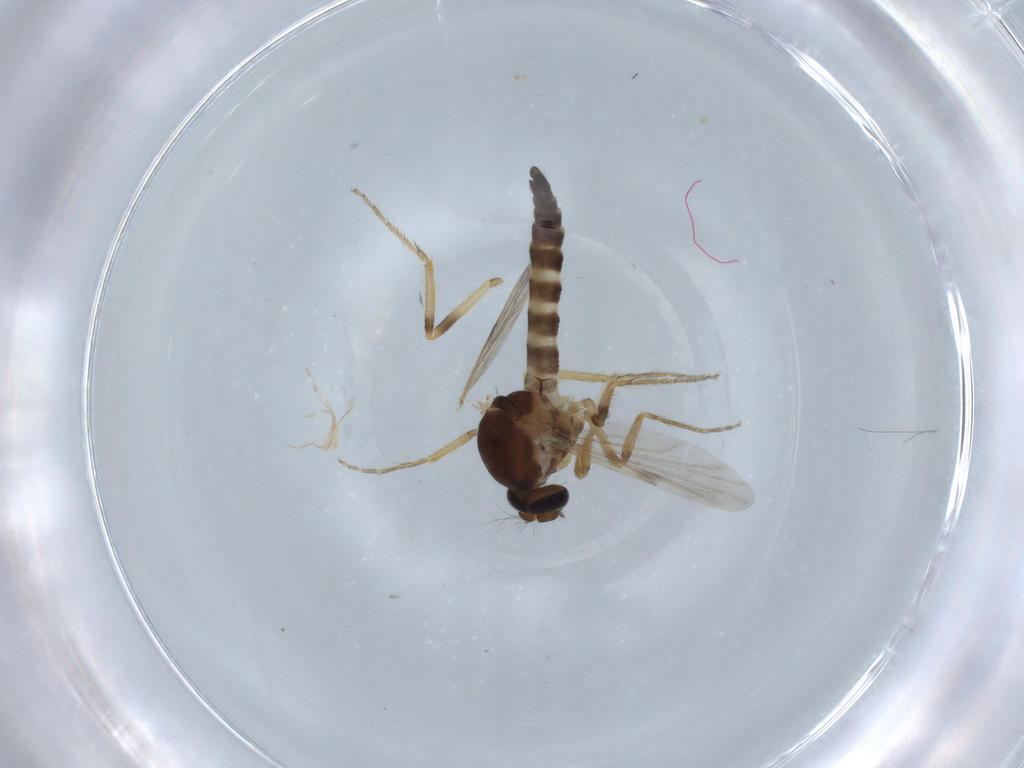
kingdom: Animalia
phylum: Arthropoda
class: Insecta
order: Diptera
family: Ceratopogonidae
